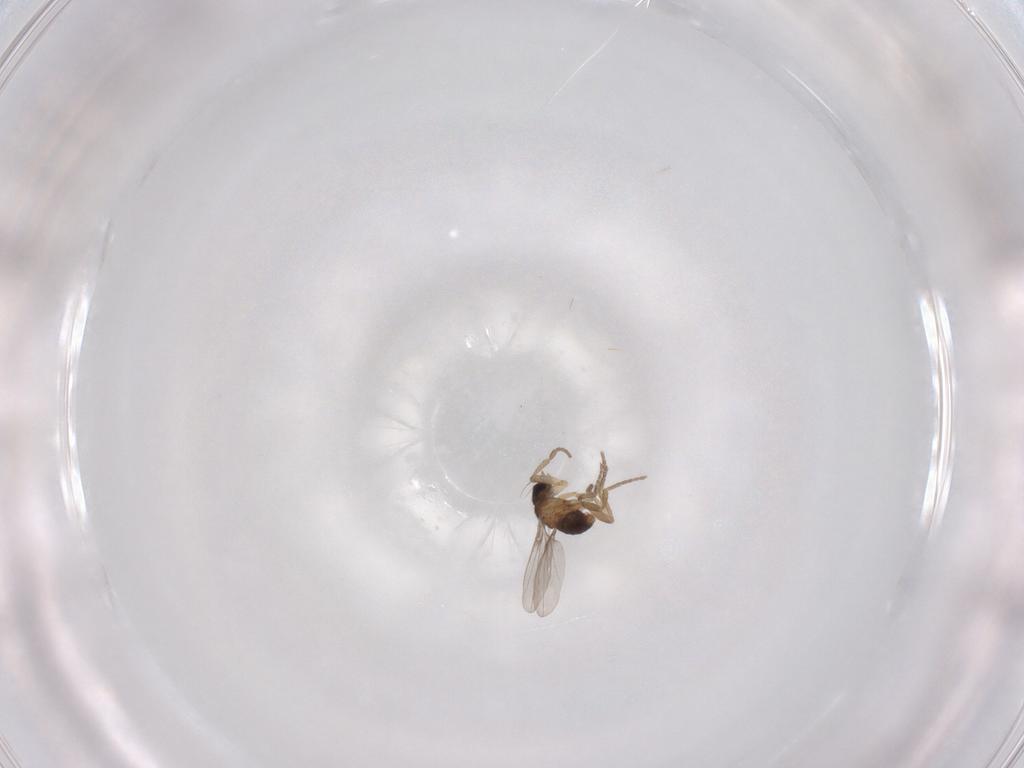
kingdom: Animalia
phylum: Arthropoda
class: Insecta
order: Diptera
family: Phoridae
